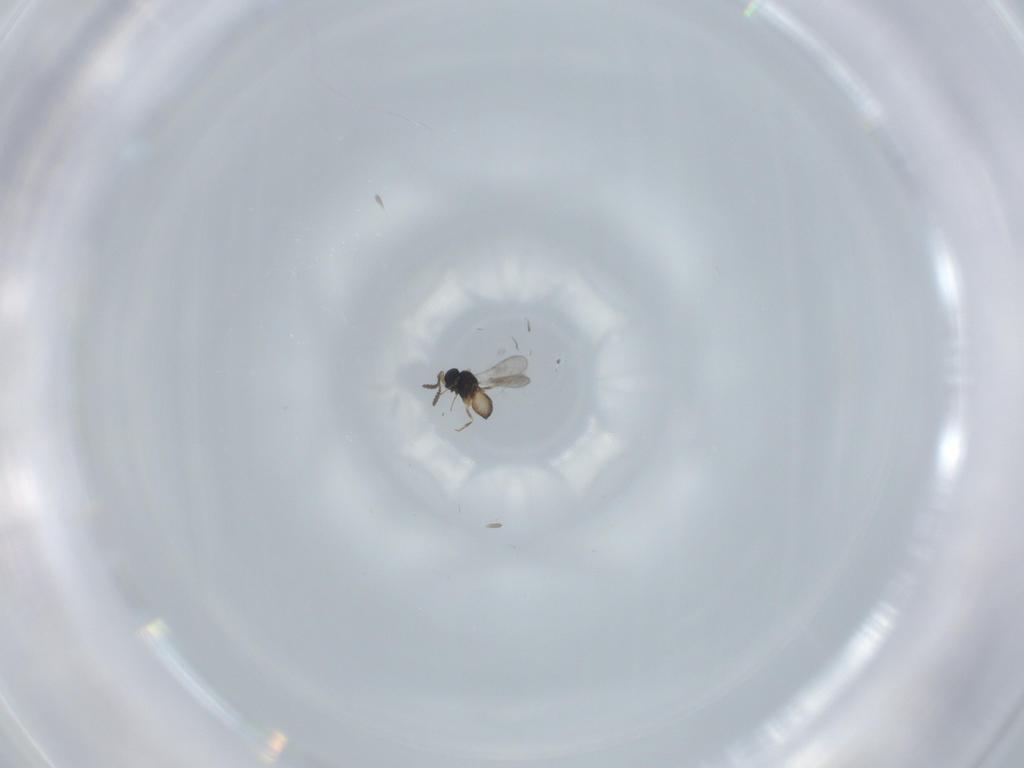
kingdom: Animalia
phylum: Arthropoda
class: Insecta
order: Hymenoptera
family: Scelionidae
